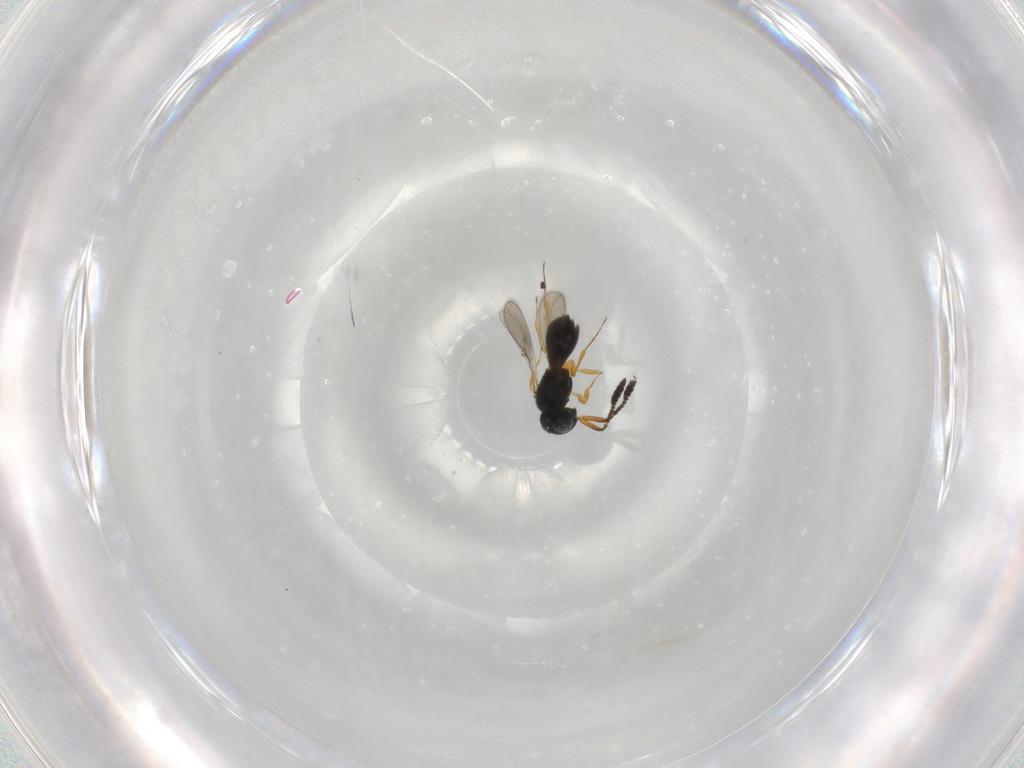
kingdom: Animalia
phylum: Arthropoda
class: Insecta
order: Hymenoptera
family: Scelionidae
